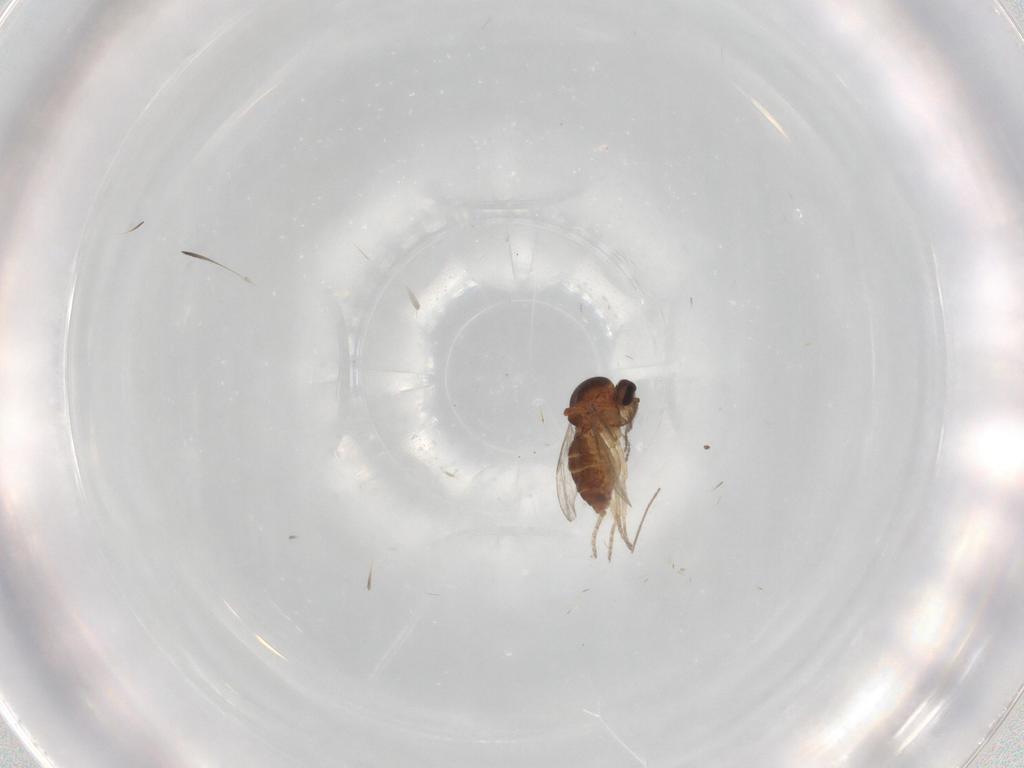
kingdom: Animalia
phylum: Arthropoda
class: Insecta
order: Diptera
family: Ceratopogonidae
